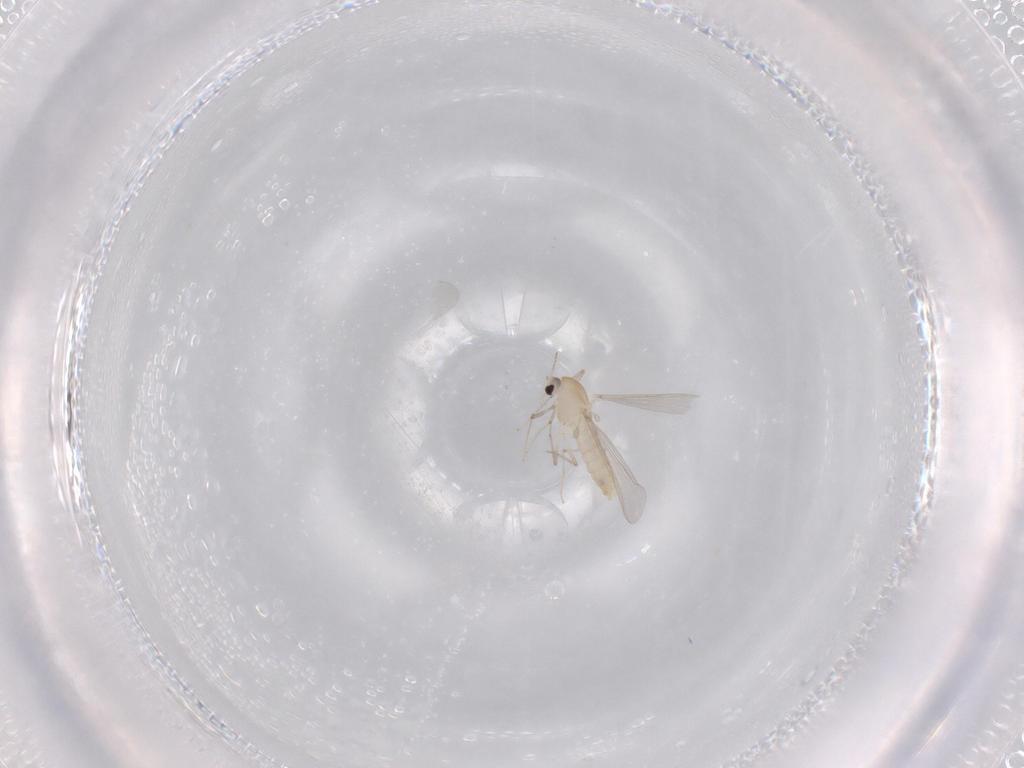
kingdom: Animalia
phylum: Arthropoda
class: Insecta
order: Diptera
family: Chironomidae
